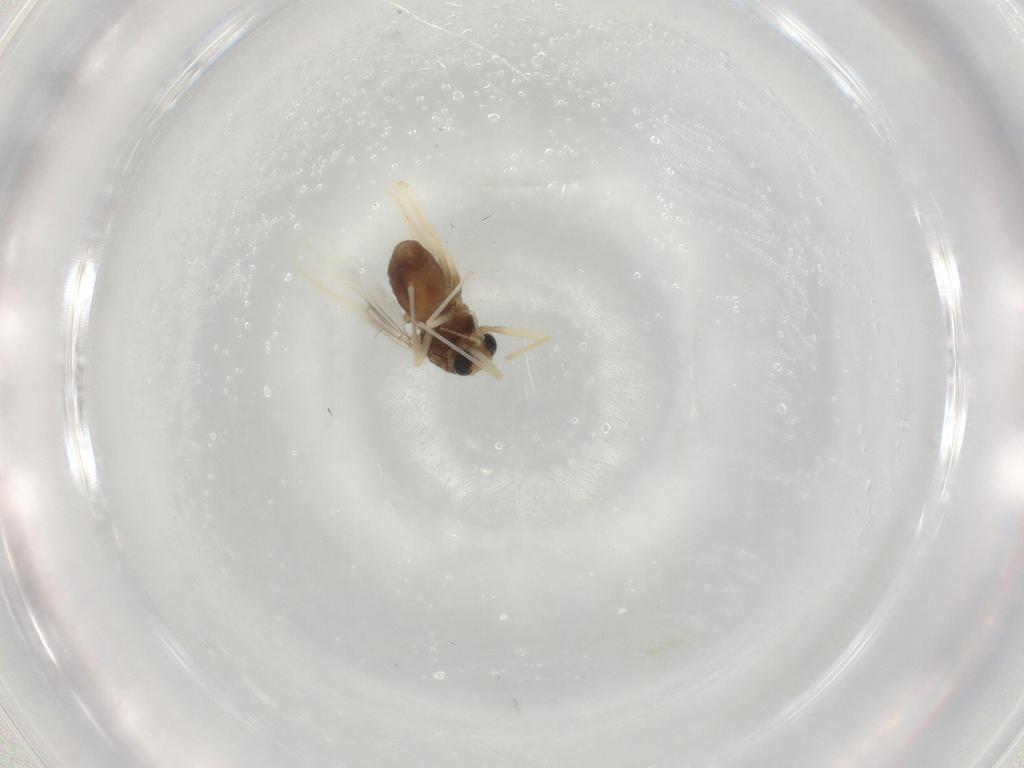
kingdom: Animalia
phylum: Arthropoda
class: Insecta
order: Diptera
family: Chironomidae
